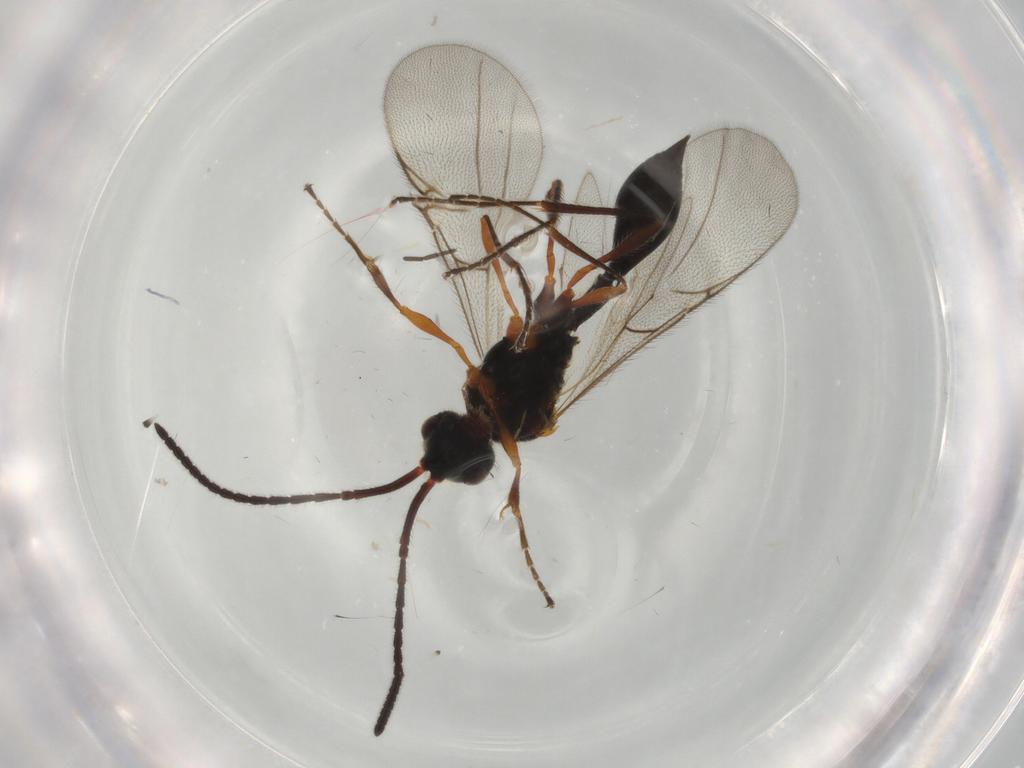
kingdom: Animalia
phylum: Arthropoda
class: Insecta
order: Hymenoptera
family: Diapriidae
